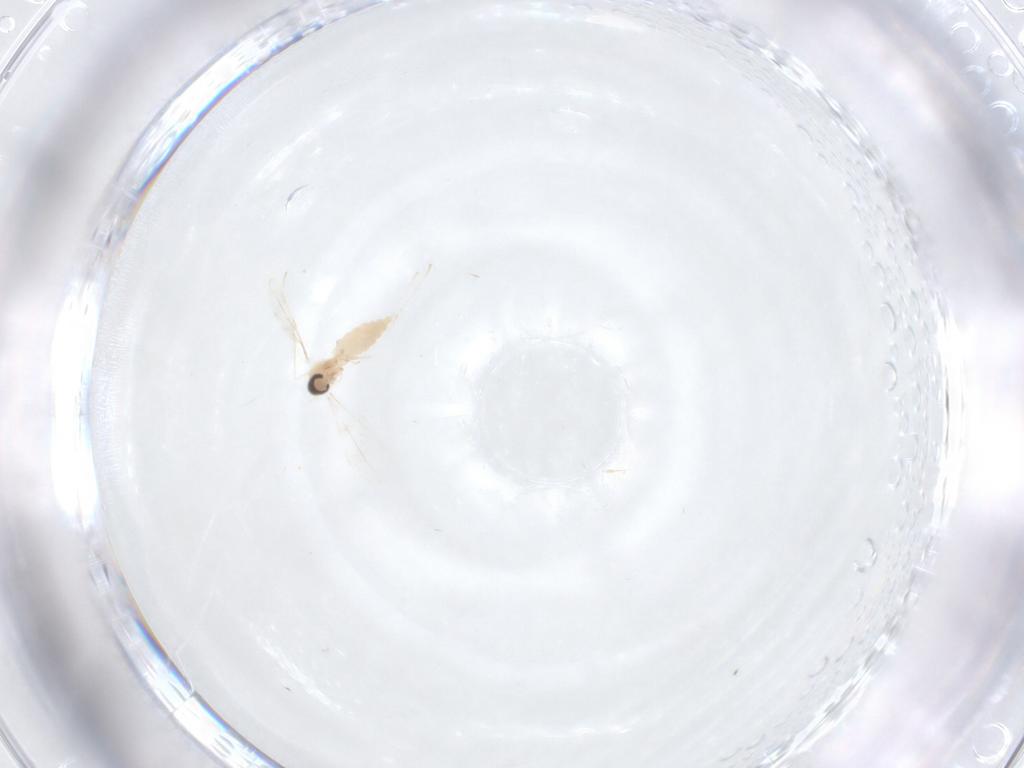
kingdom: Animalia
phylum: Arthropoda
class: Insecta
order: Diptera
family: Cecidomyiidae
